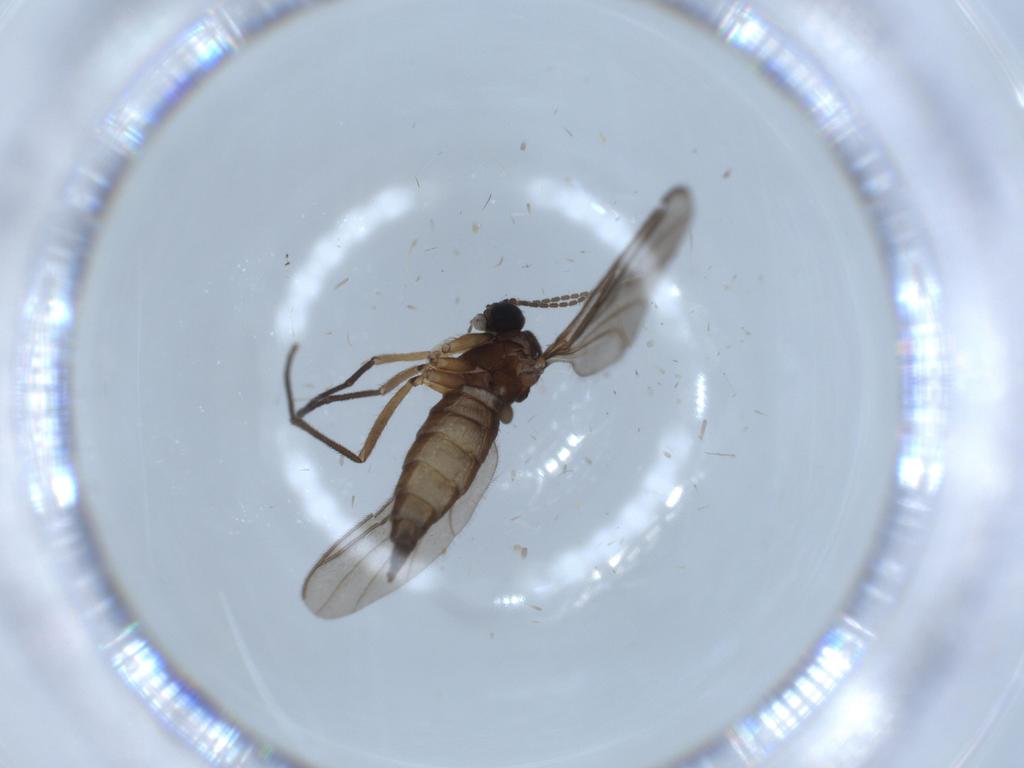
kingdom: Animalia
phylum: Arthropoda
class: Insecta
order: Diptera
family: Sciaridae
